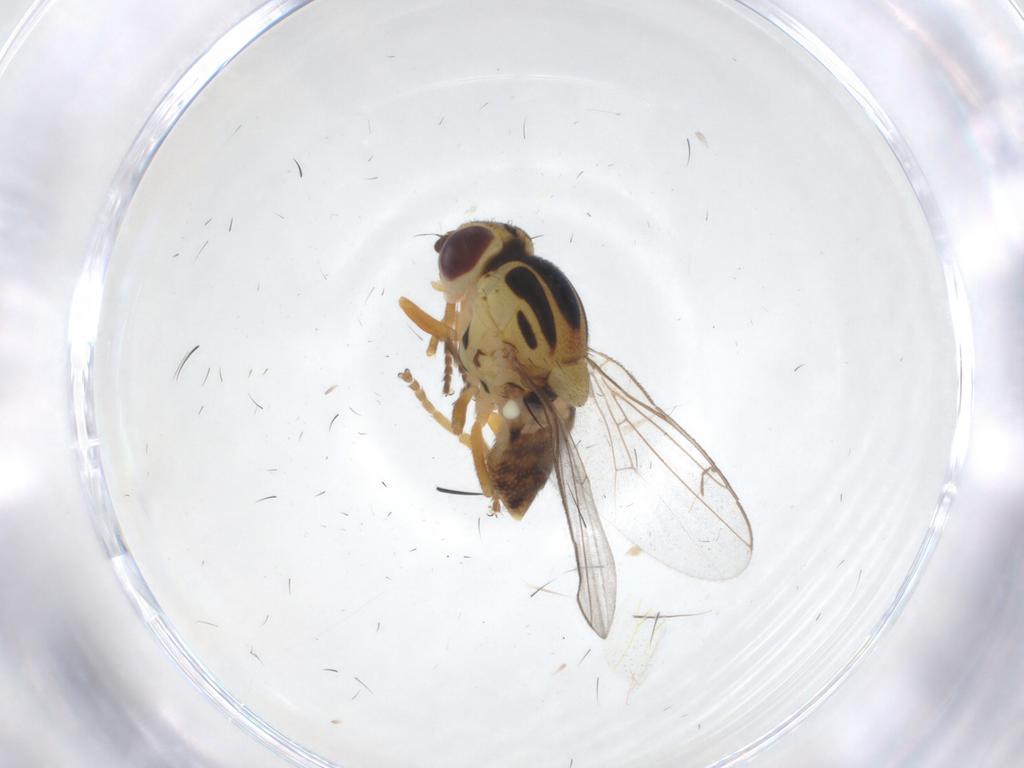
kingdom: Animalia
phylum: Arthropoda
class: Insecta
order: Diptera
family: Chloropidae
